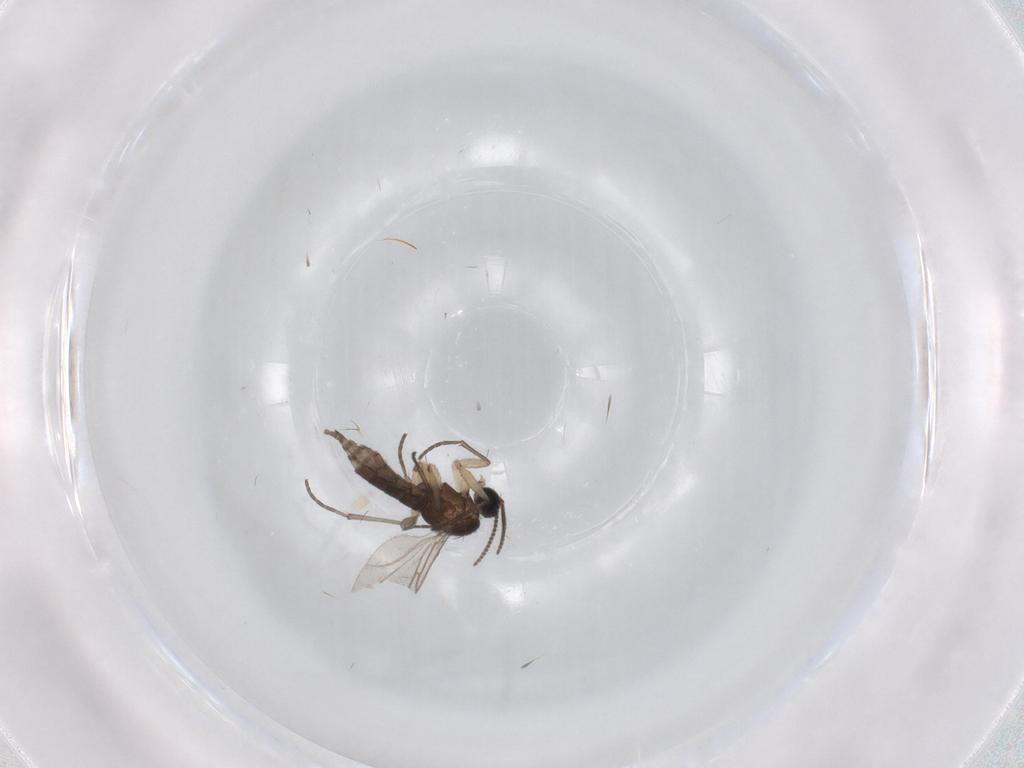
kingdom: Animalia
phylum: Arthropoda
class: Insecta
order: Diptera
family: Sciaridae
